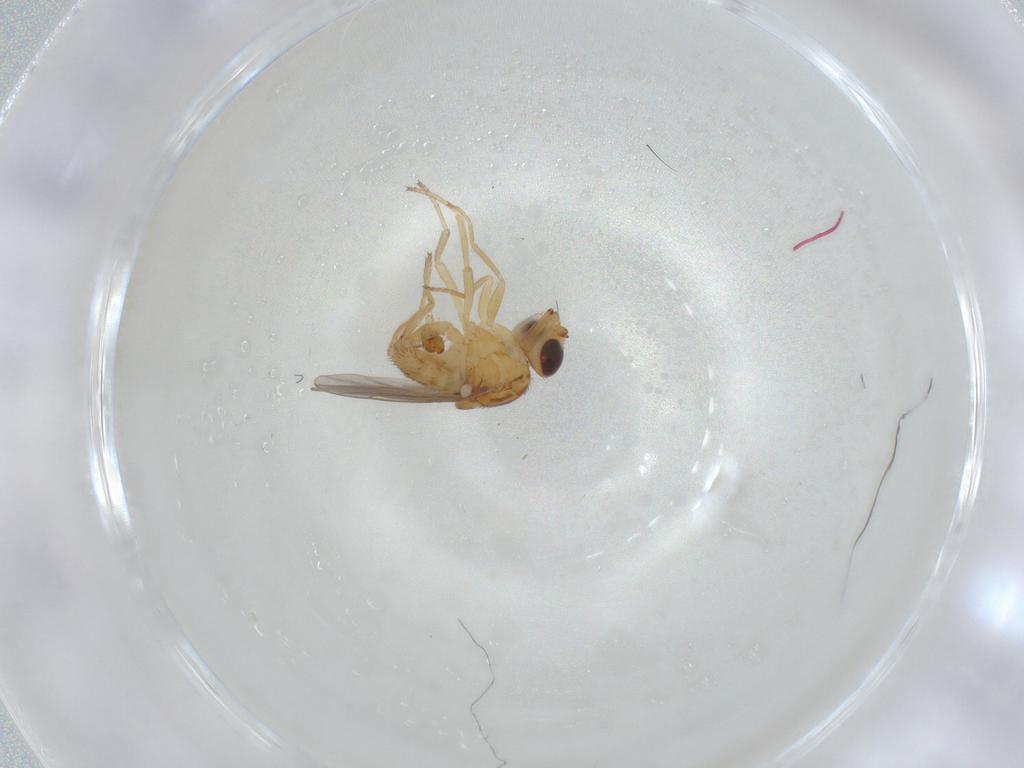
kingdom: Animalia
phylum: Arthropoda
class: Insecta
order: Diptera
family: Chloropidae
